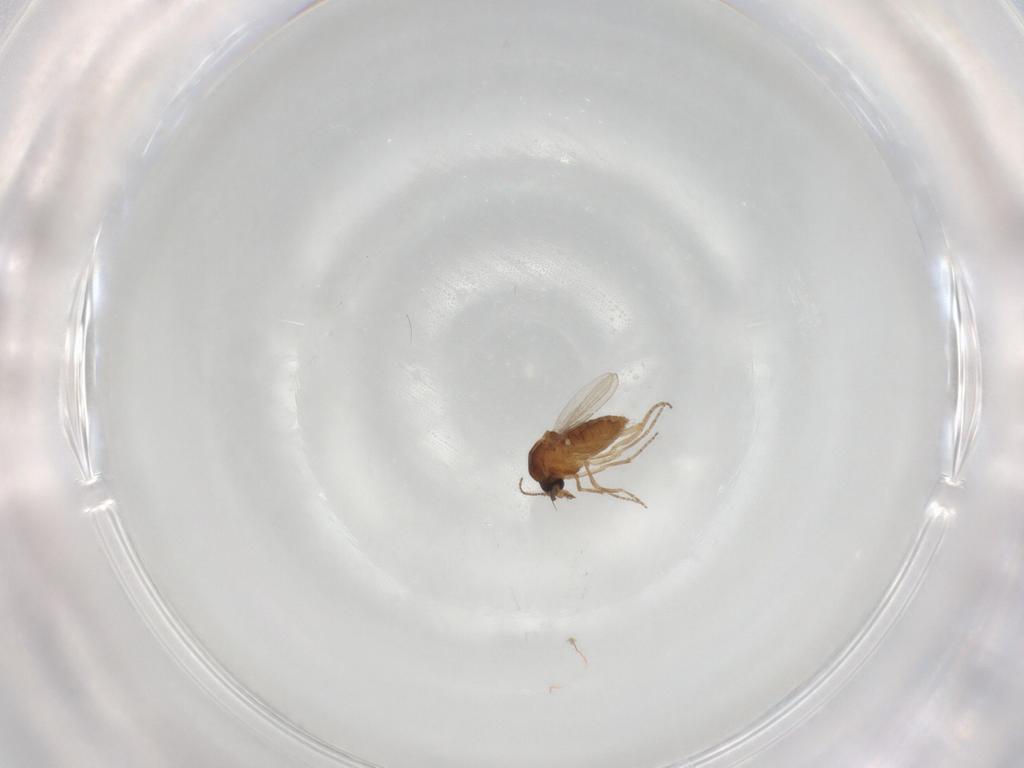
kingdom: Animalia
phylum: Arthropoda
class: Insecta
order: Diptera
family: Ceratopogonidae
